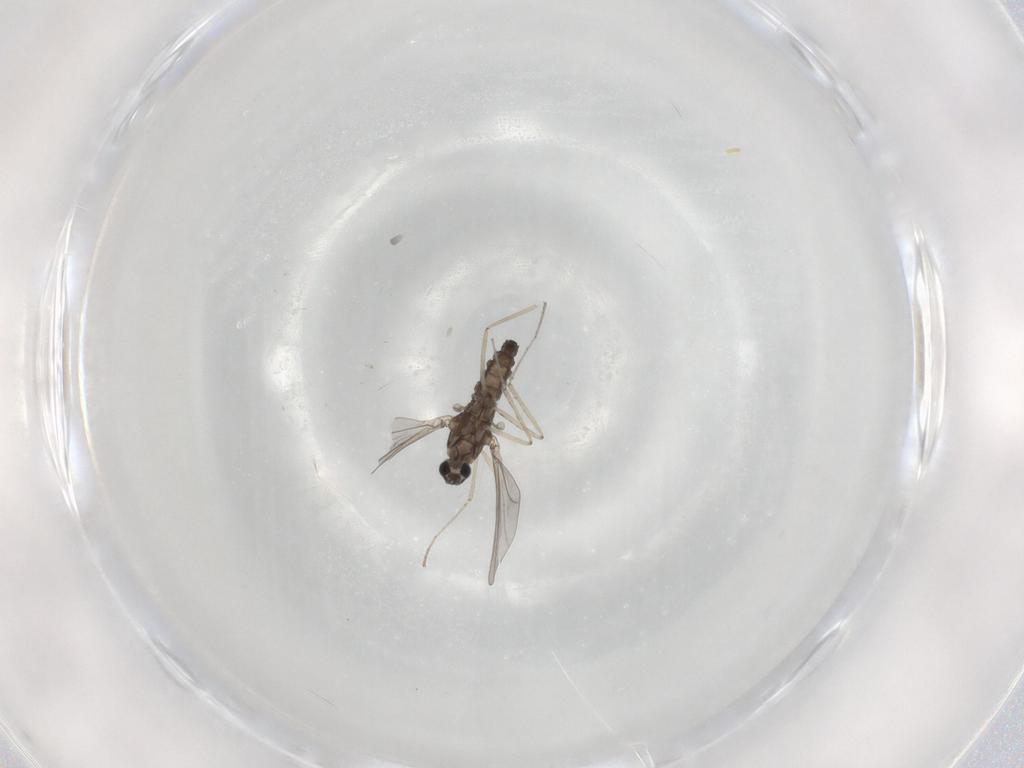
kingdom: Animalia
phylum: Arthropoda
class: Insecta
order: Diptera
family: Cecidomyiidae
